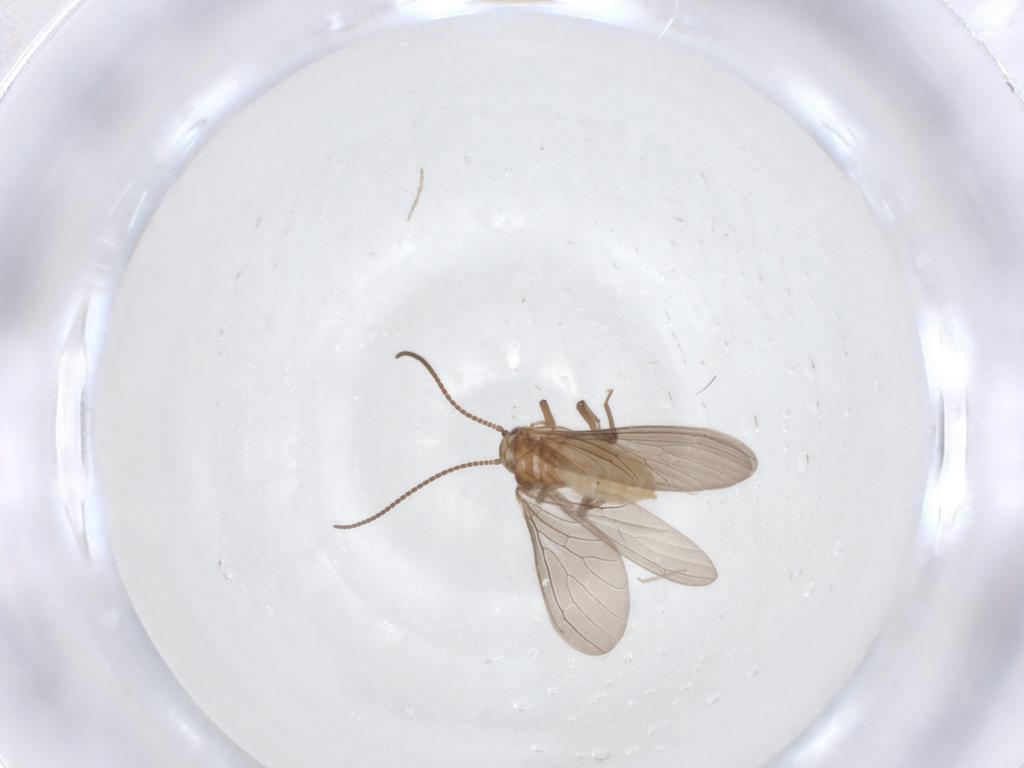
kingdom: Animalia
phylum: Arthropoda
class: Insecta
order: Neuroptera
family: Coniopterygidae
